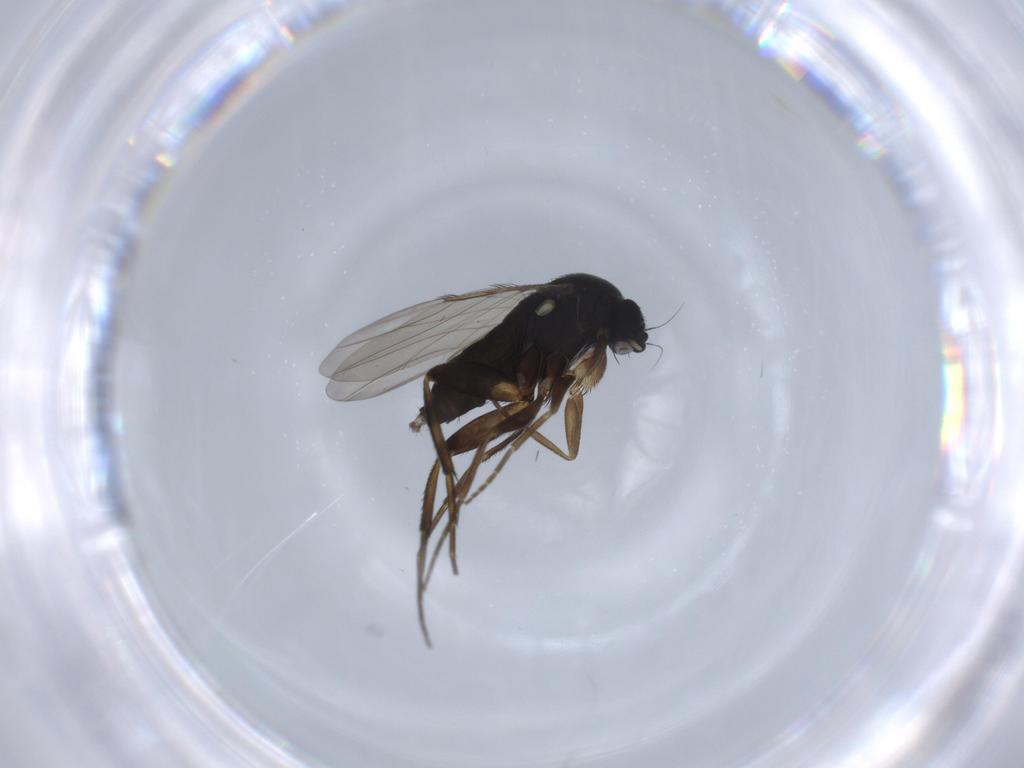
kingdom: Animalia
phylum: Arthropoda
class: Insecta
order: Diptera
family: Phoridae
